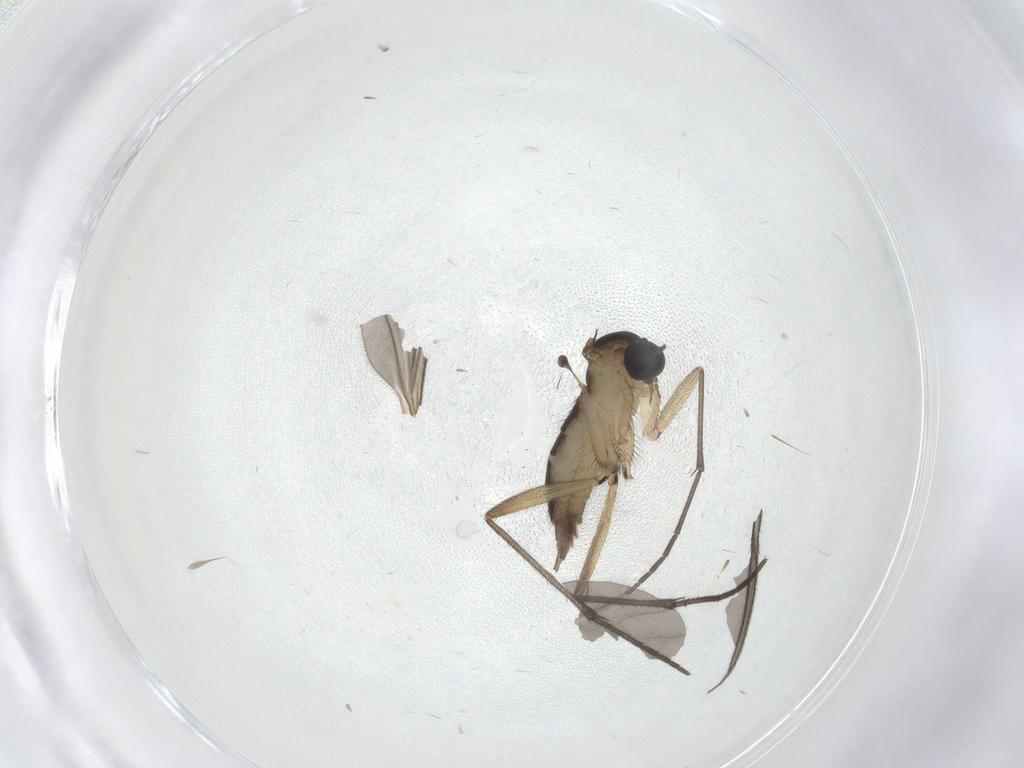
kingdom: Animalia
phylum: Arthropoda
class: Insecta
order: Diptera
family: Sciaridae
